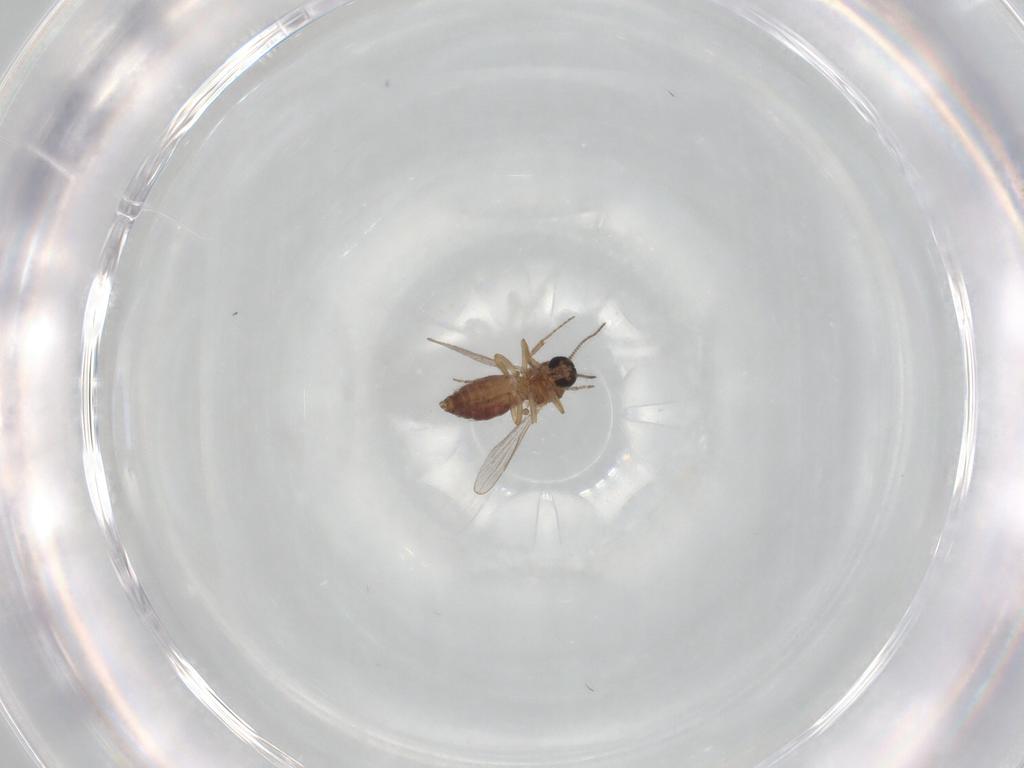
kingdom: Animalia
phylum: Arthropoda
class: Insecta
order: Diptera
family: Ceratopogonidae
